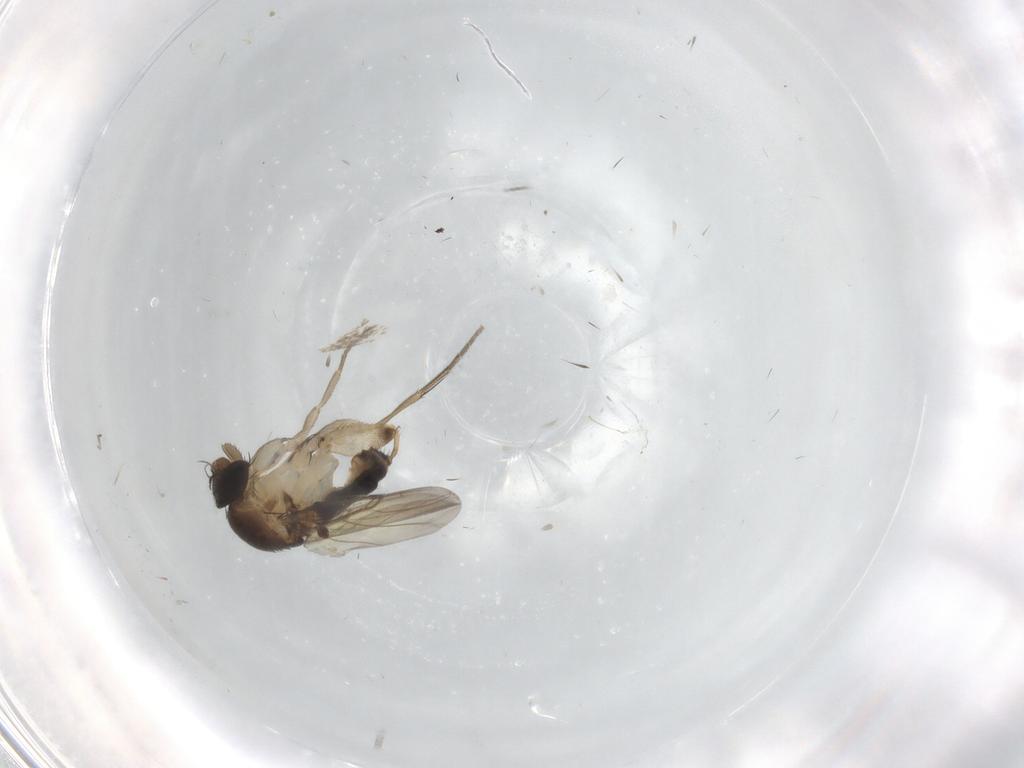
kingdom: Animalia
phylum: Arthropoda
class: Insecta
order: Diptera
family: Phoridae
